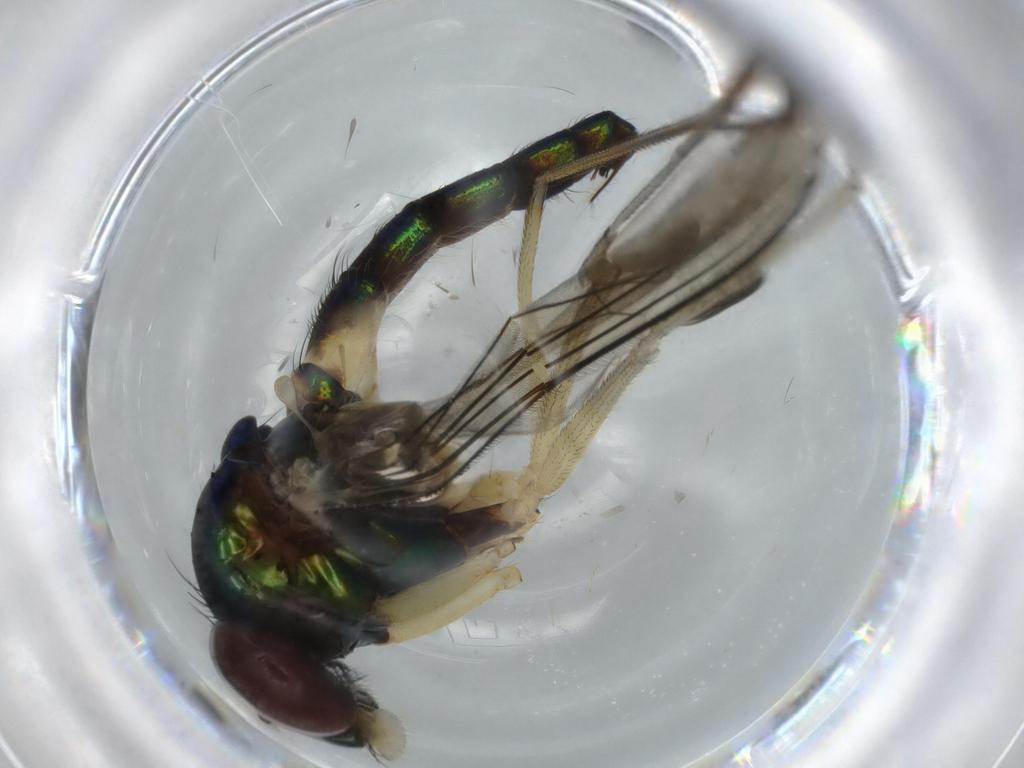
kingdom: Animalia
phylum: Arthropoda
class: Insecta
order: Diptera
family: Dolichopodidae
